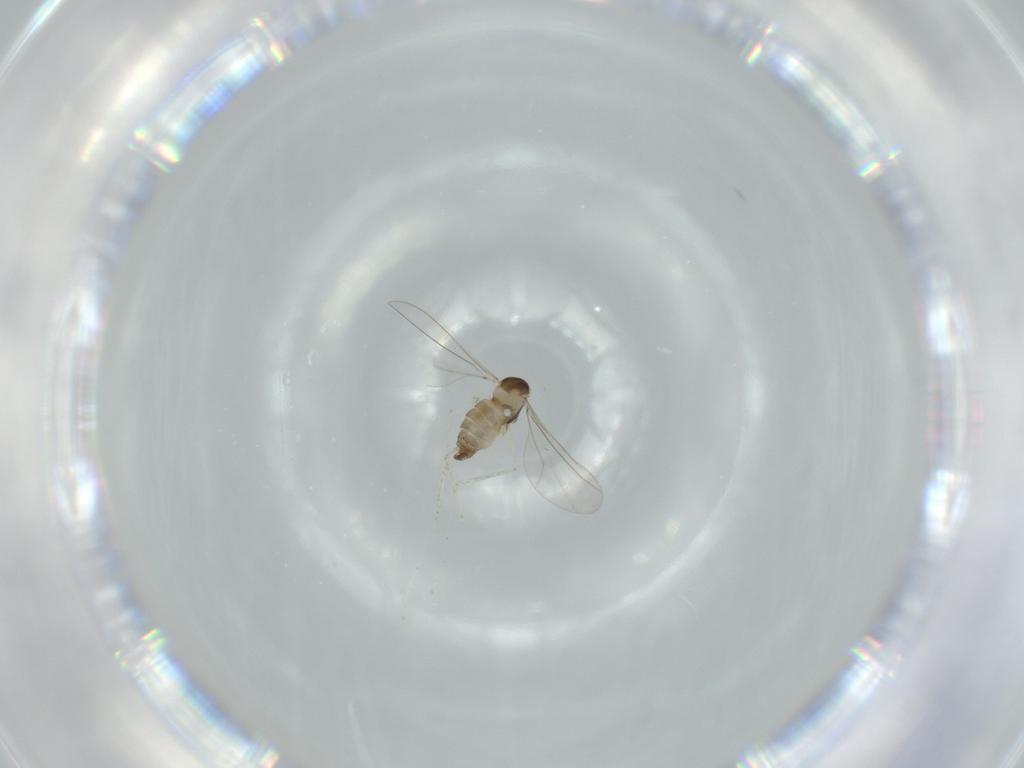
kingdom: Animalia
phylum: Arthropoda
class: Insecta
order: Diptera
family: Cecidomyiidae
